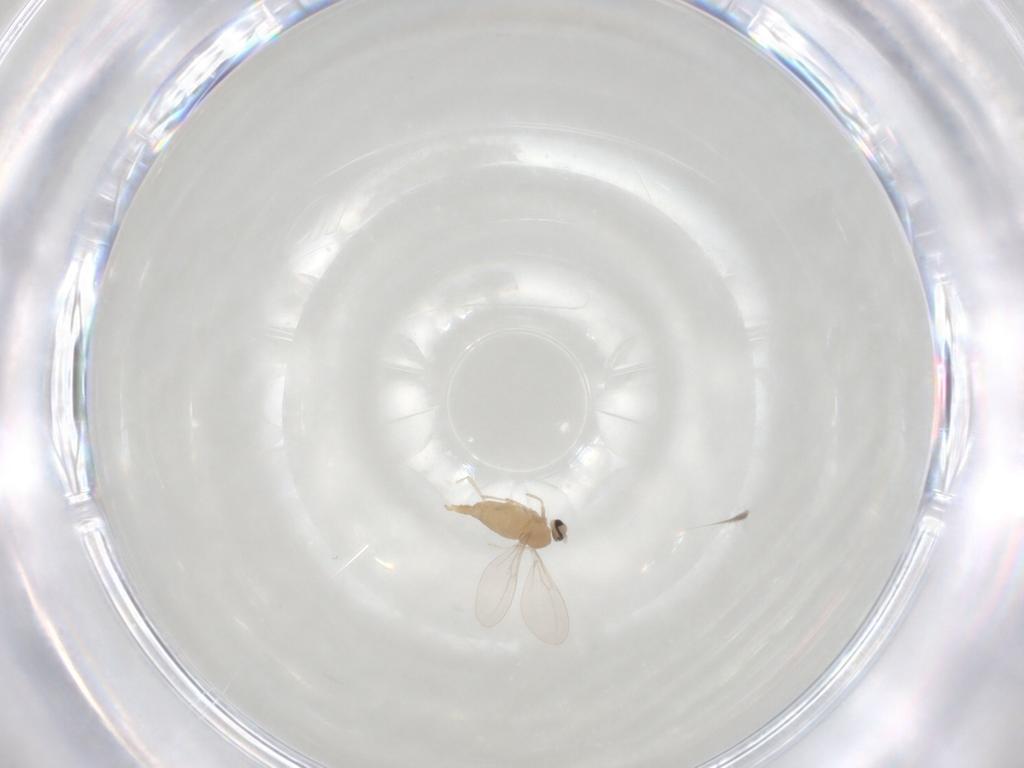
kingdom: Animalia
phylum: Arthropoda
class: Insecta
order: Diptera
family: Cecidomyiidae
